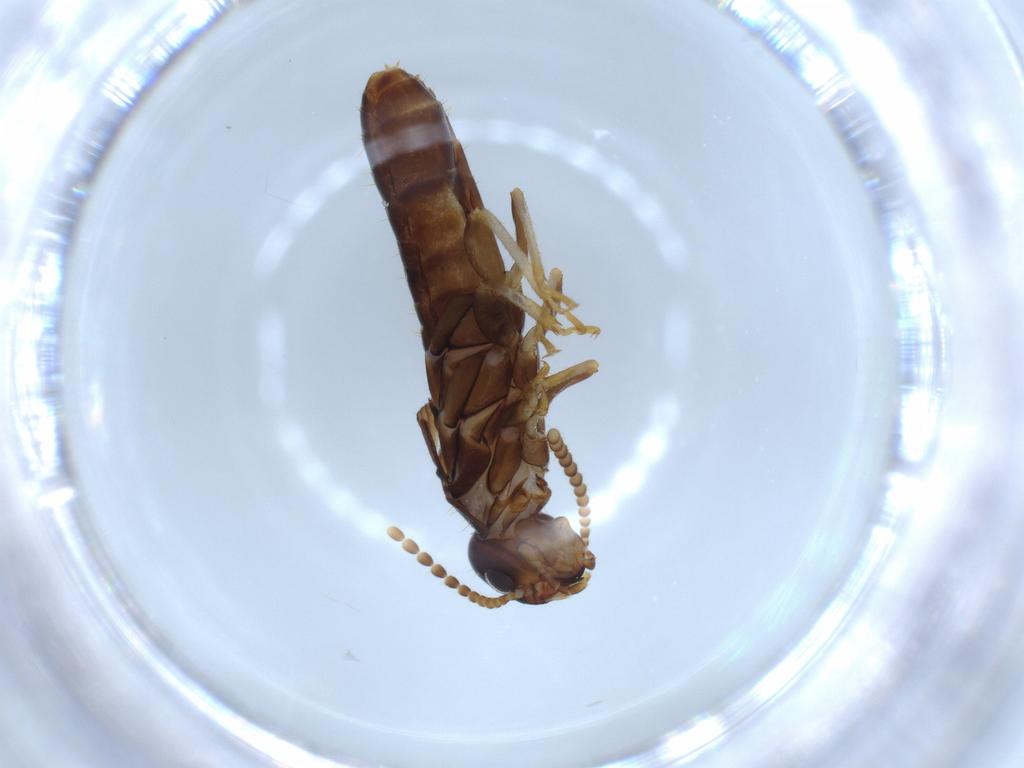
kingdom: Animalia
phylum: Arthropoda
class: Insecta
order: Blattodea
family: Kalotermitidae
